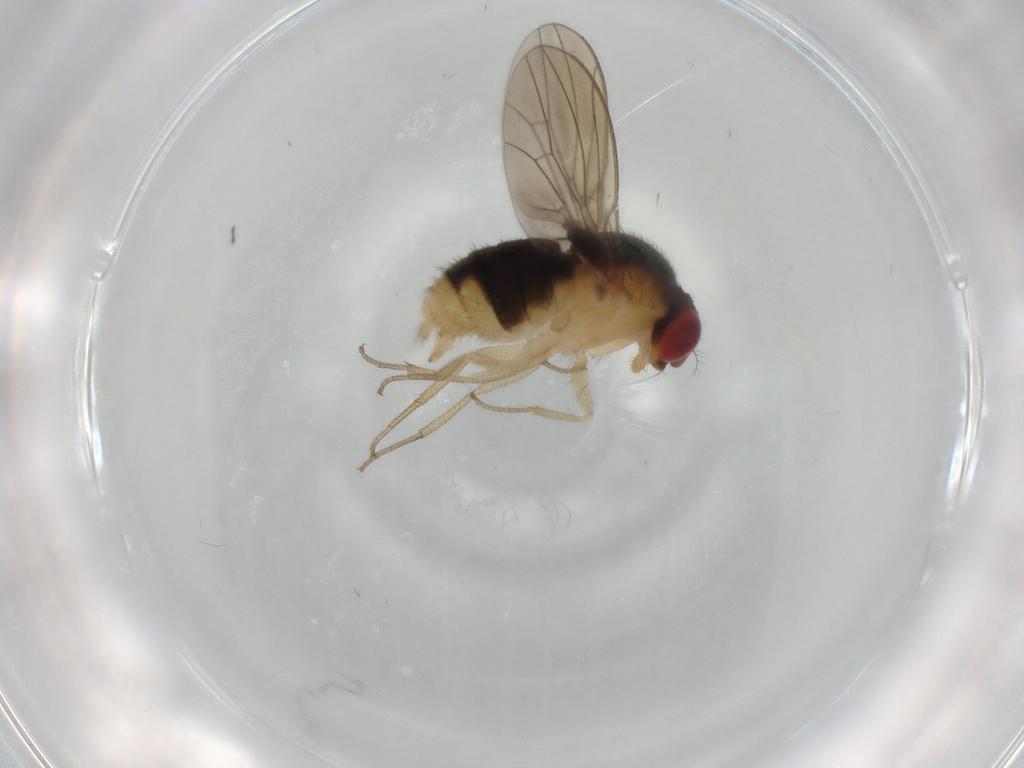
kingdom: Animalia
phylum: Arthropoda
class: Insecta
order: Diptera
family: Drosophilidae
